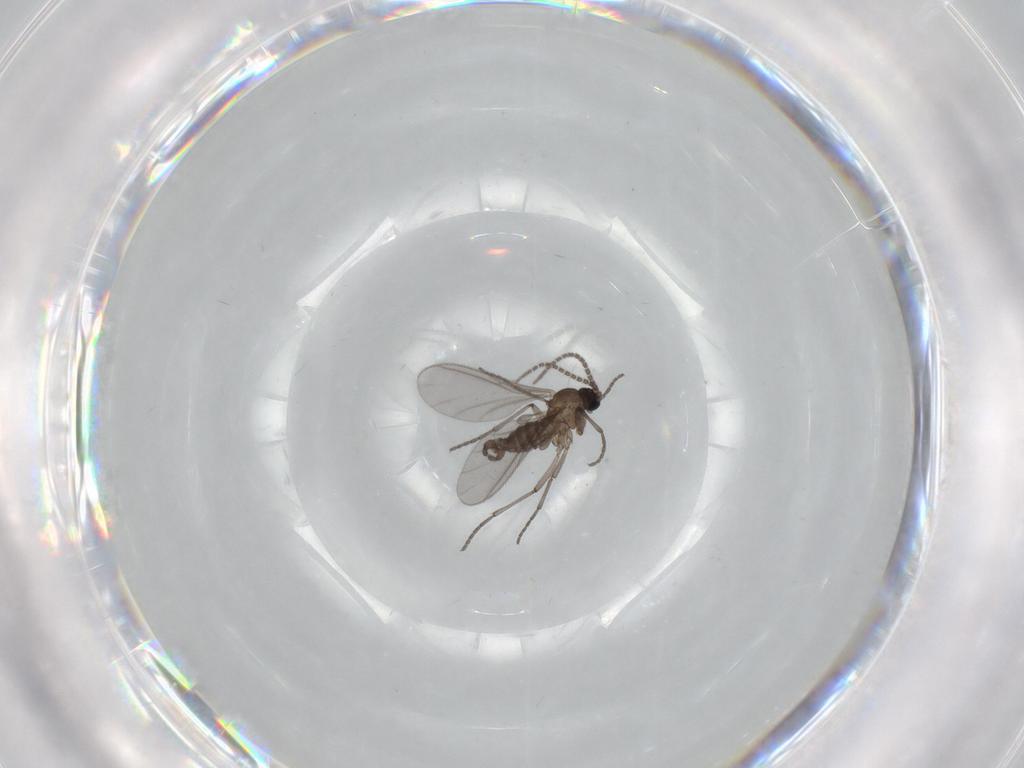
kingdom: Animalia
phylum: Arthropoda
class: Insecta
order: Diptera
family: Sciaridae
